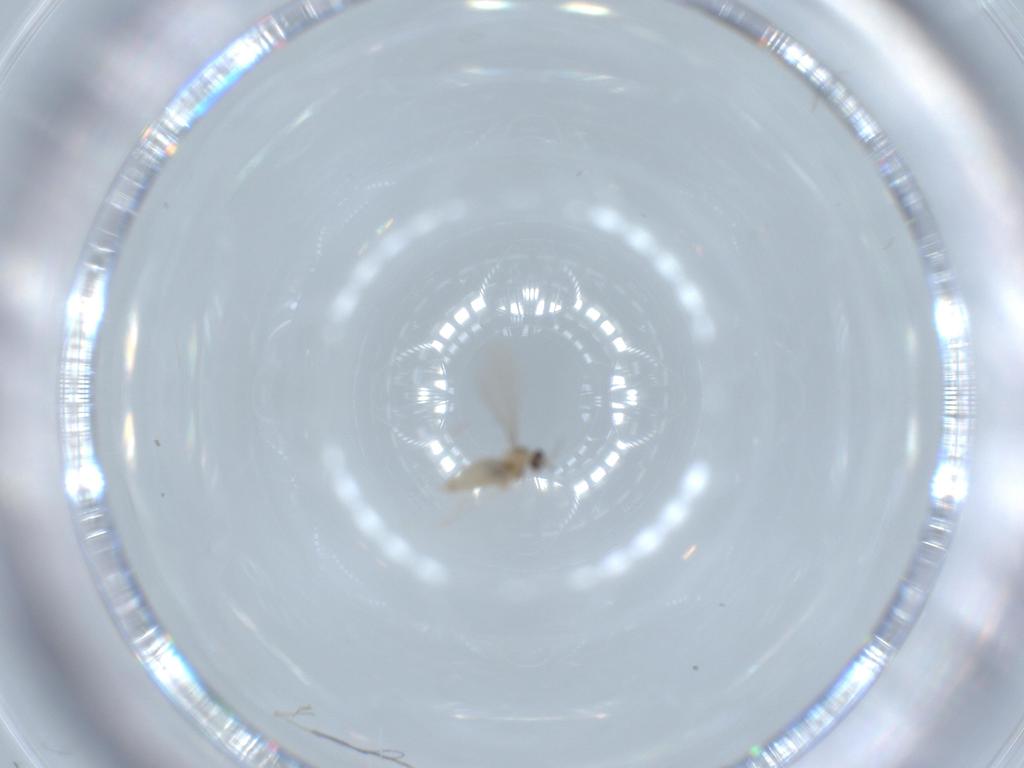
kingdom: Animalia
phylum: Arthropoda
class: Insecta
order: Diptera
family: Cecidomyiidae
